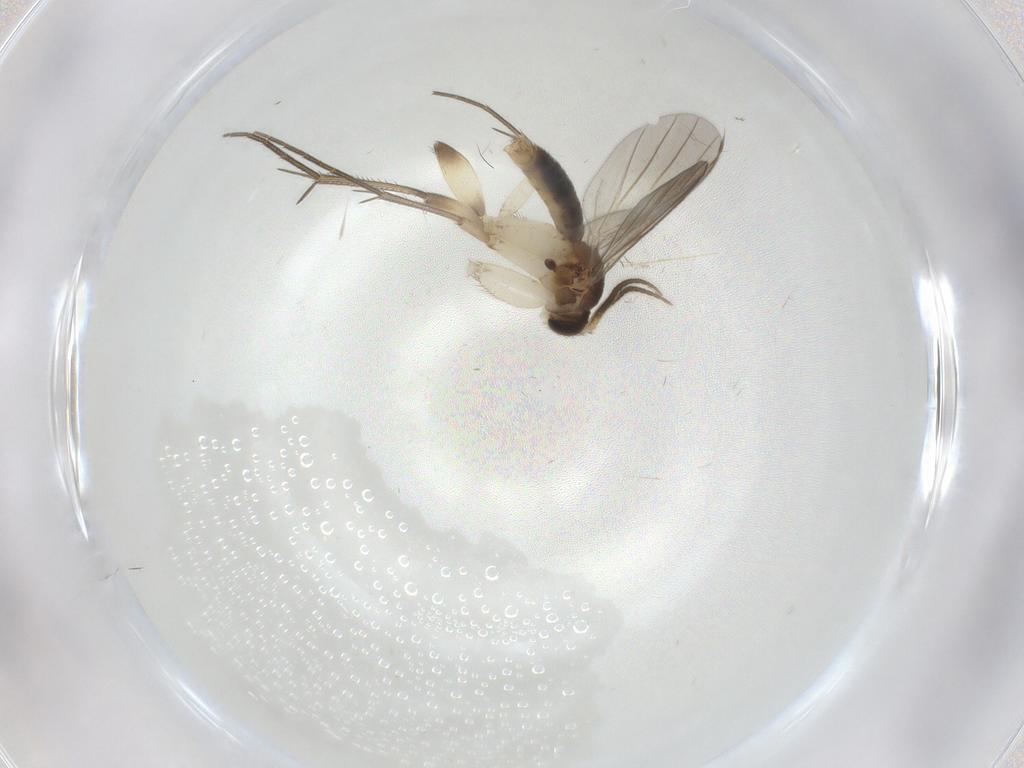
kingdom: Animalia
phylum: Arthropoda
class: Insecta
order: Diptera
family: Mycetophilidae
